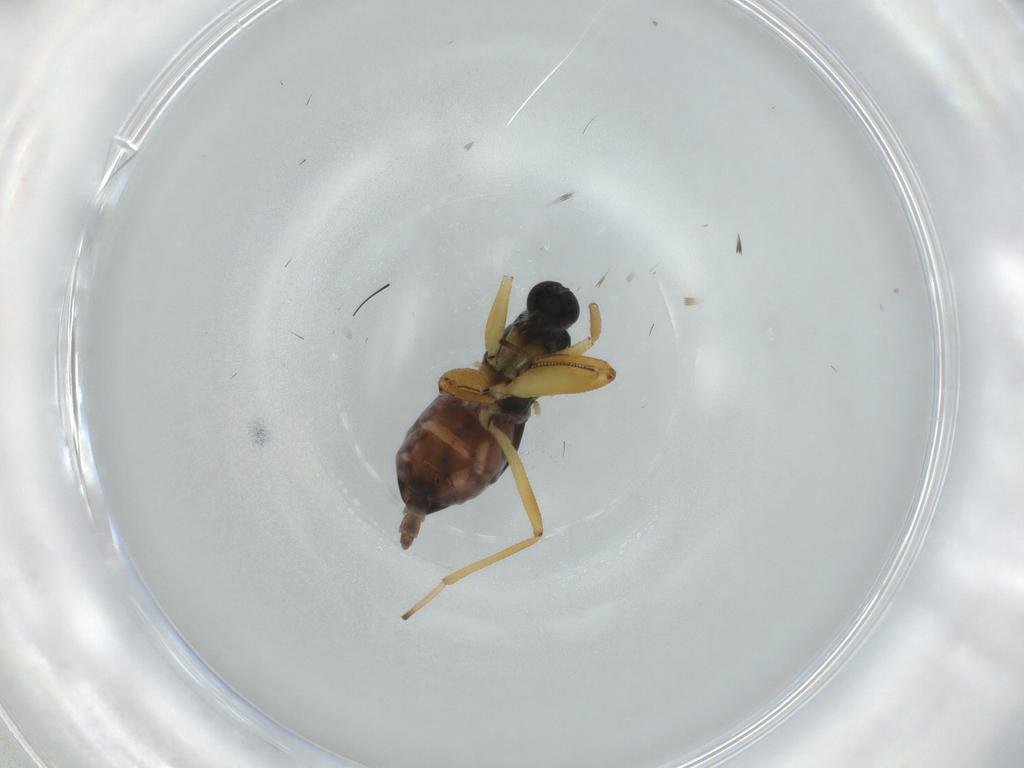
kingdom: Animalia
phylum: Arthropoda
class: Insecta
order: Diptera
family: Hybotidae
